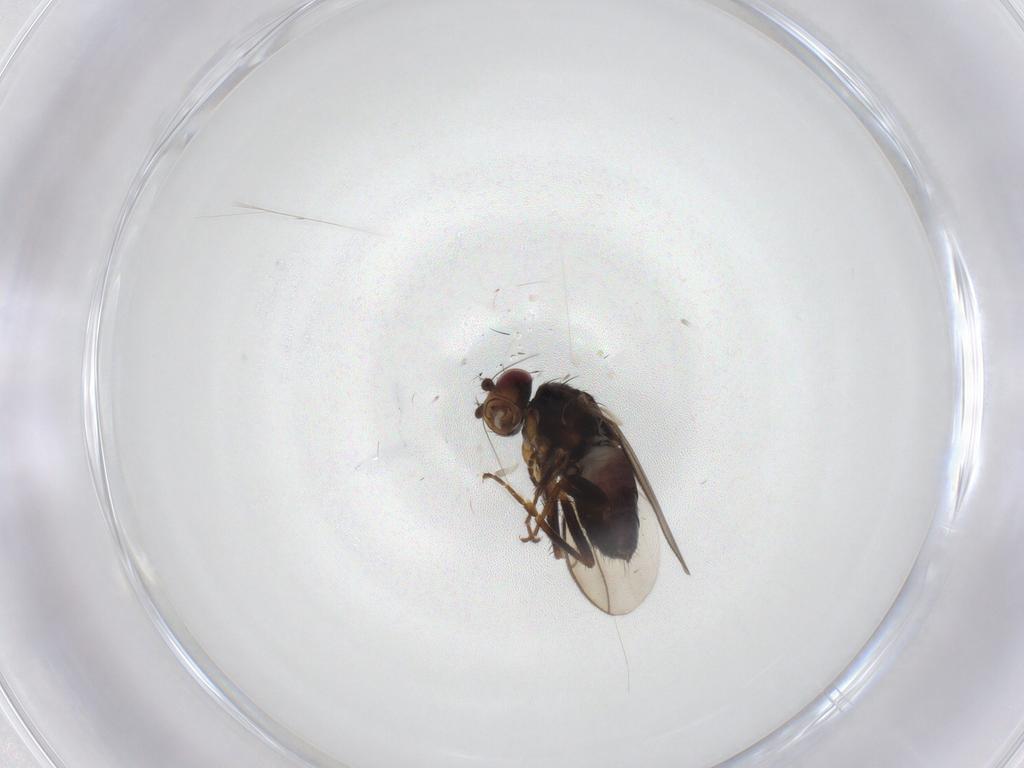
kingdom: Animalia
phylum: Arthropoda
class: Insecta
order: Diptera
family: Sphaeroceridae
